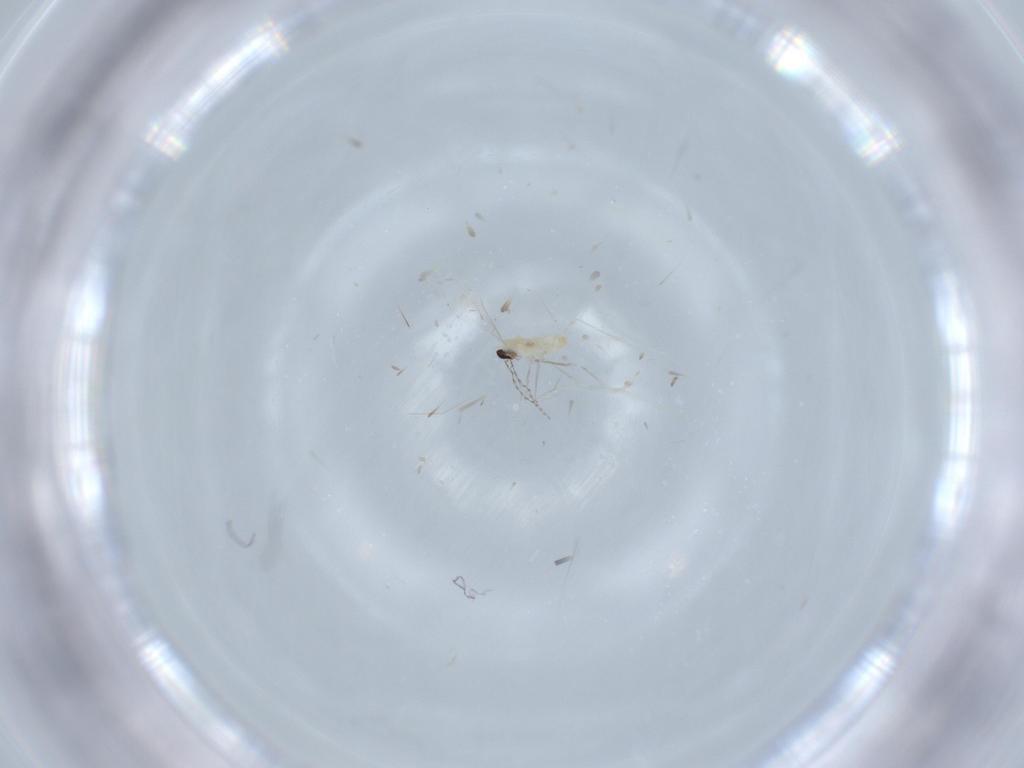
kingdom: Animalia
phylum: Arthropoda
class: Insecta
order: Diptera
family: Cecidomyiidae
